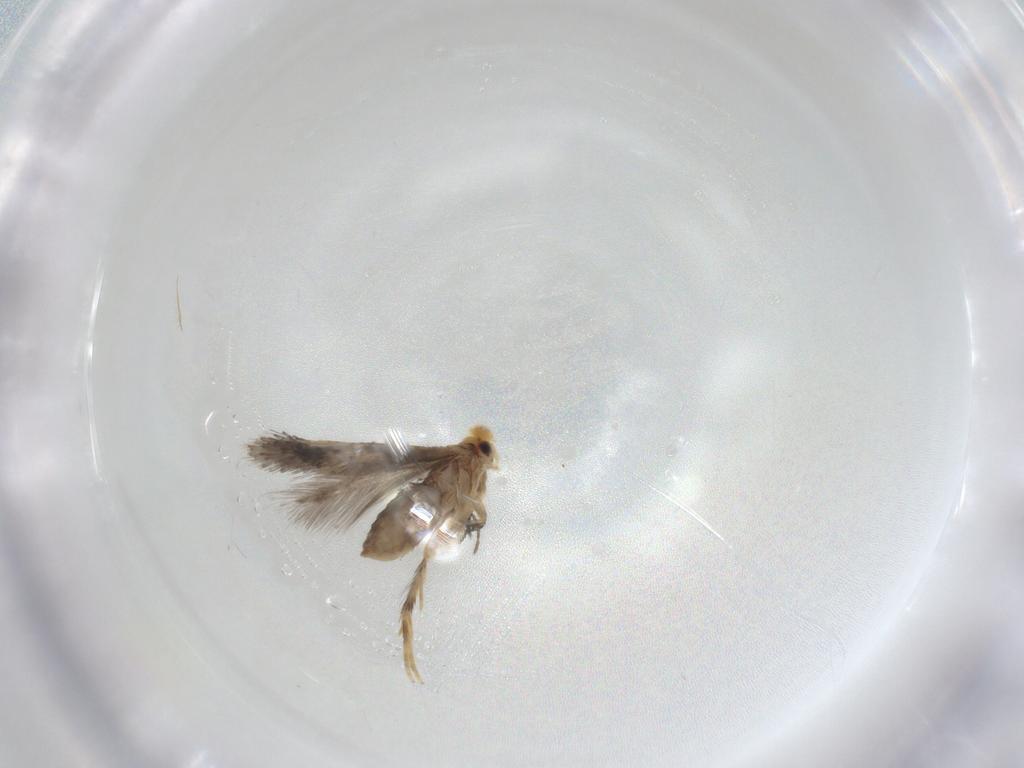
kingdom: Animalia
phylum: Arthropoda
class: Insecta
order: Lepidoptera
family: Nepticulidae
